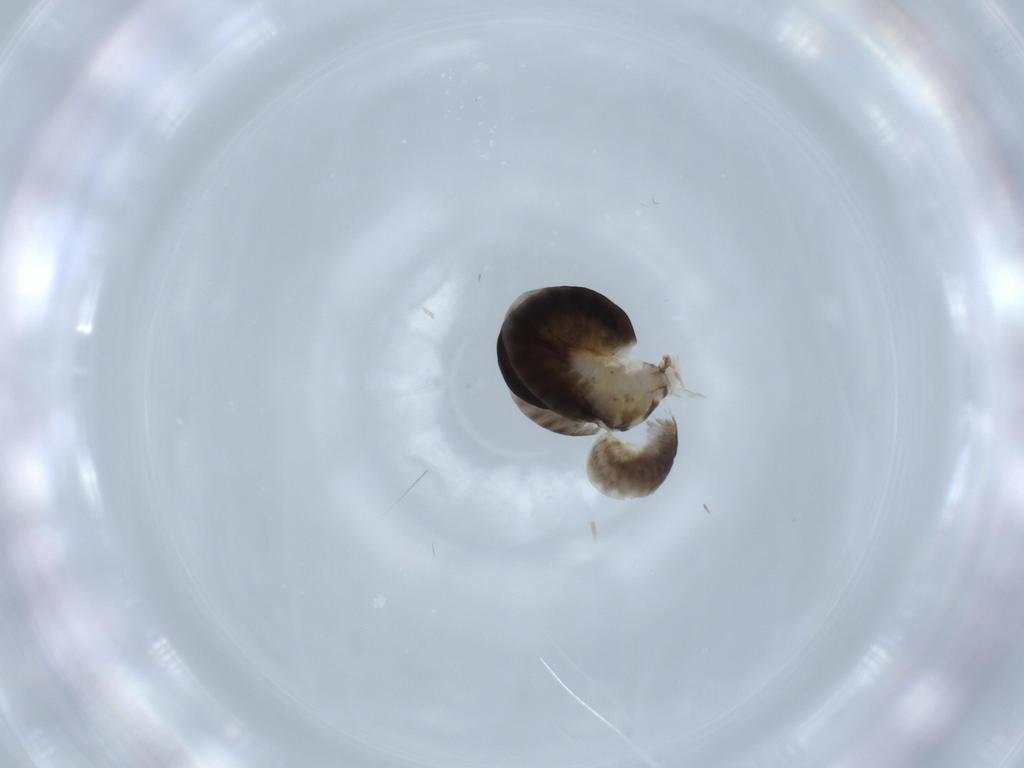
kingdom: Animalia
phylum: Arthropoda
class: Insecta
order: Hymenoptera
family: Dryinidae
